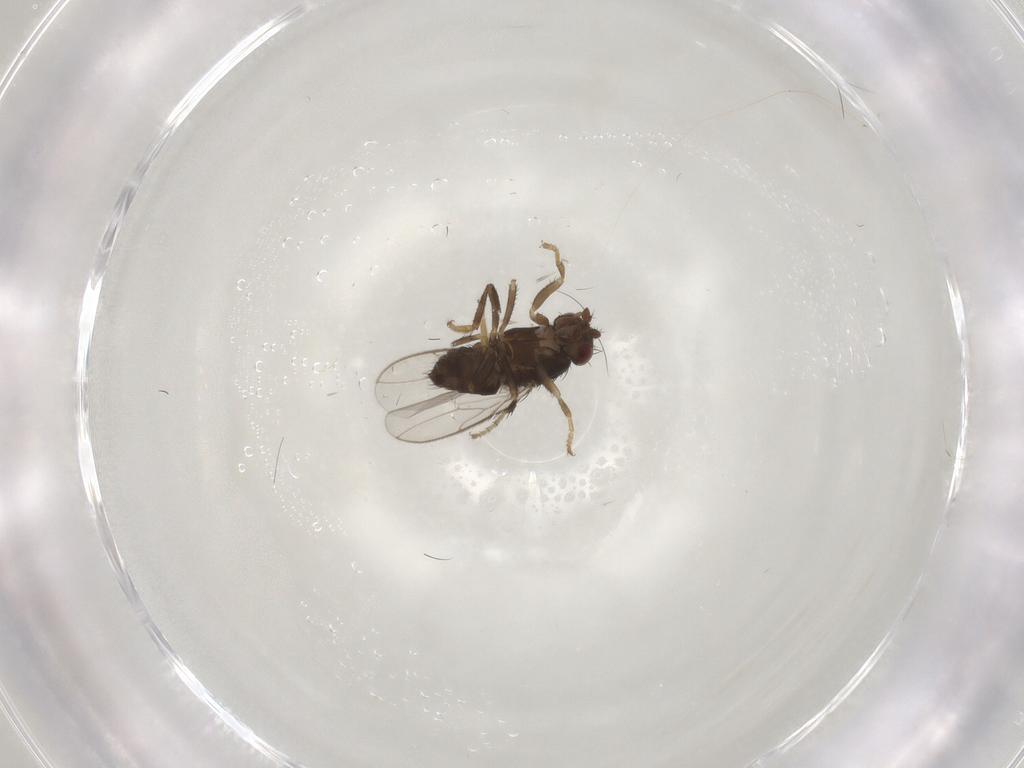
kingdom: Animalia
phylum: Arthropoda
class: Insecta
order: Diptera
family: Sphaeroceridae
